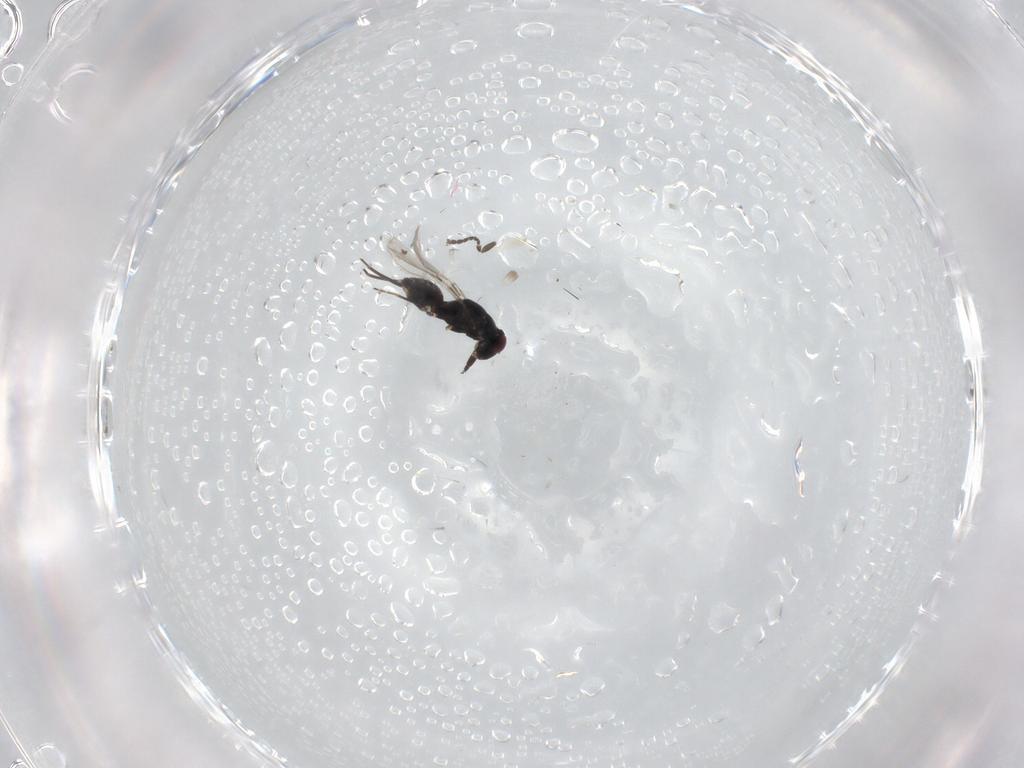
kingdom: Animalia
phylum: Arthropoda
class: Insecta
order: Hymenoptera
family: Mymaridae
